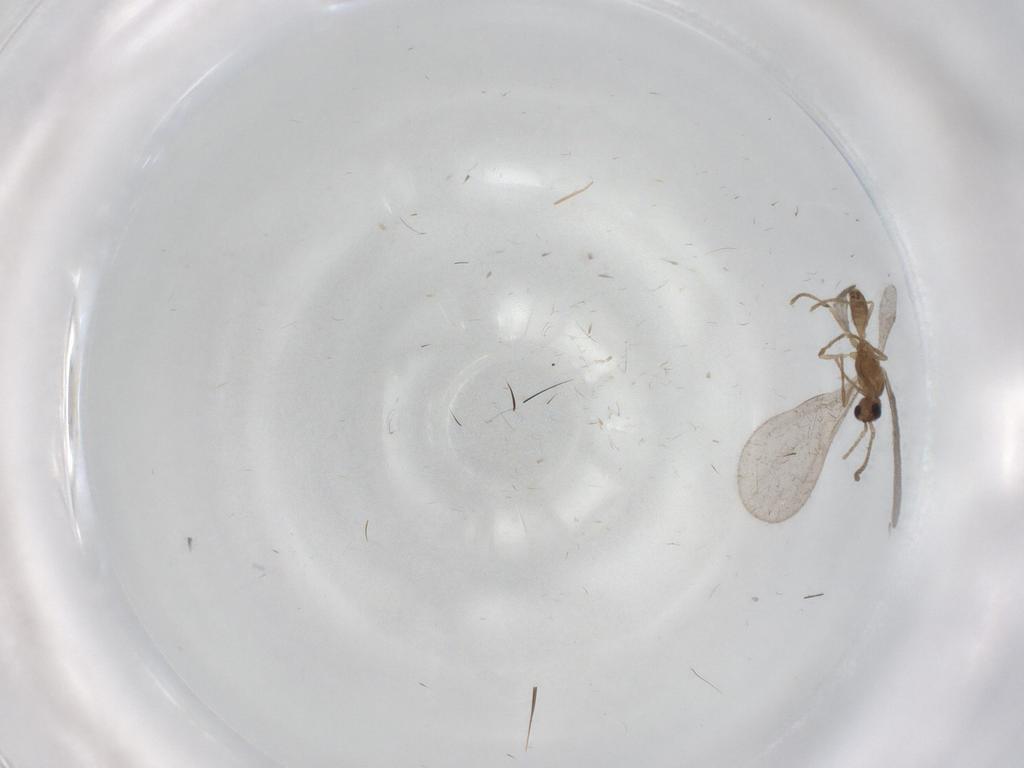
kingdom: Animalia
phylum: Arthropoda
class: Insecta
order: Hymenoptera
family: Formicidae
